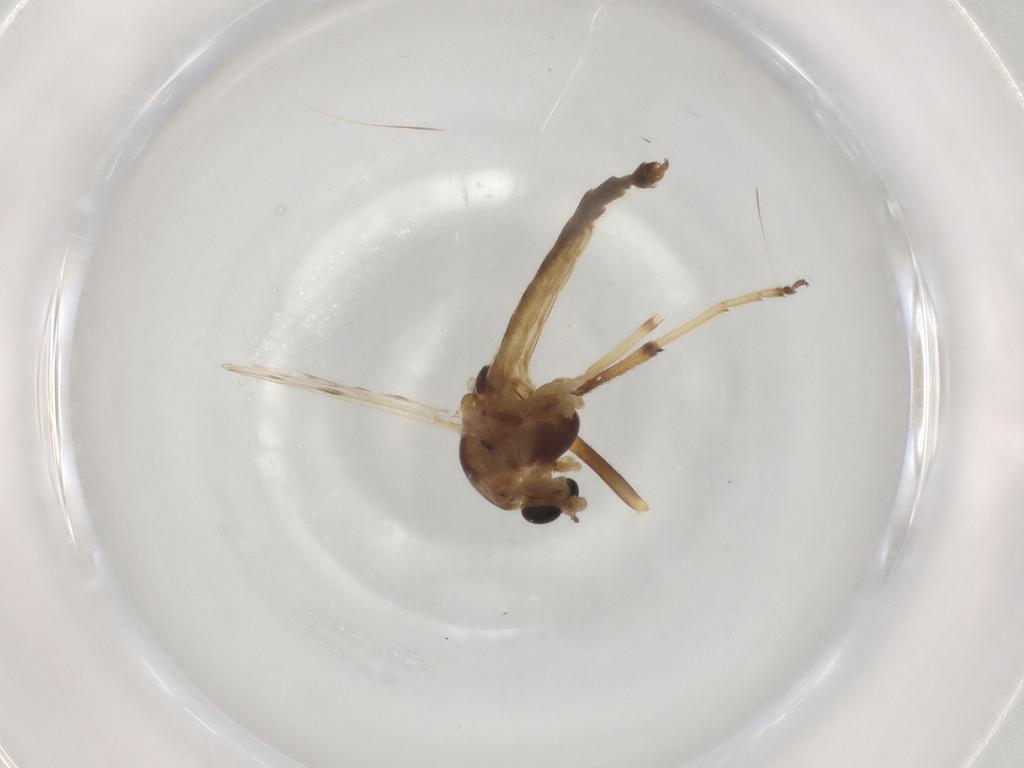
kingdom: Animalia
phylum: Arthropoda
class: Insecta
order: Diptera
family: Chironomidae
